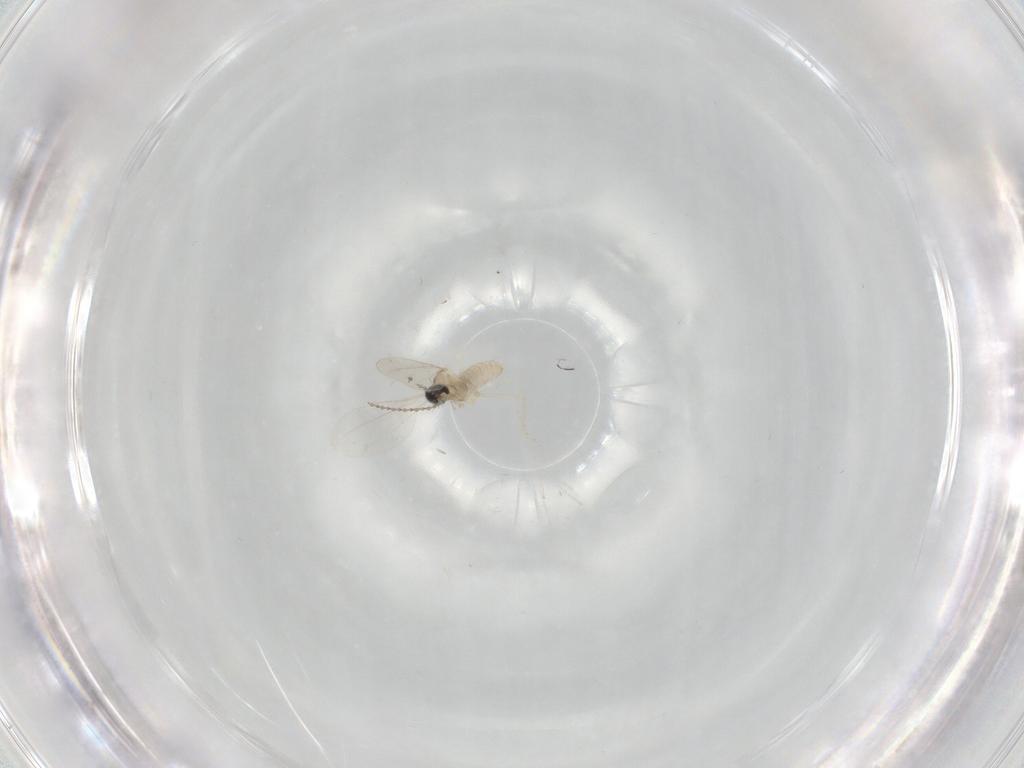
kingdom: Animalia
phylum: Arthropoda
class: Insecta
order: Diptera
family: Cecidomyiidae
